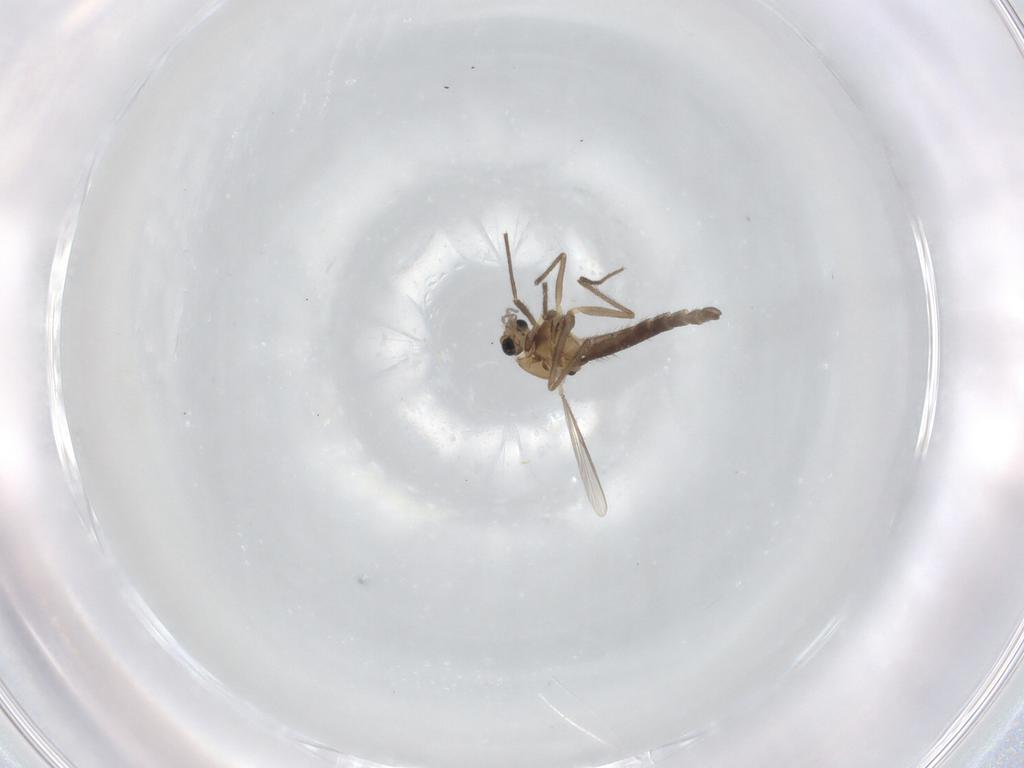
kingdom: Animalia
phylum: Arthropoda
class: Insecta
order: Diptera
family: Chironomidae
